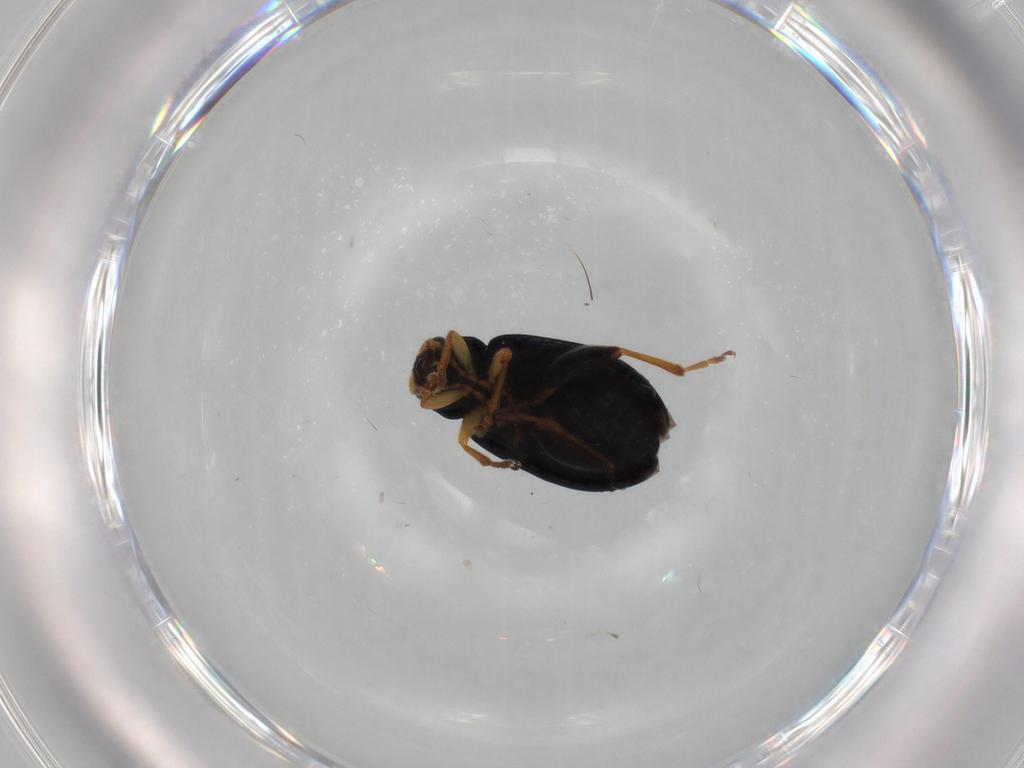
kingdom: Animalia
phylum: Arthropoda
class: Insecta
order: Coleoptera
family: Chrysomelidae
